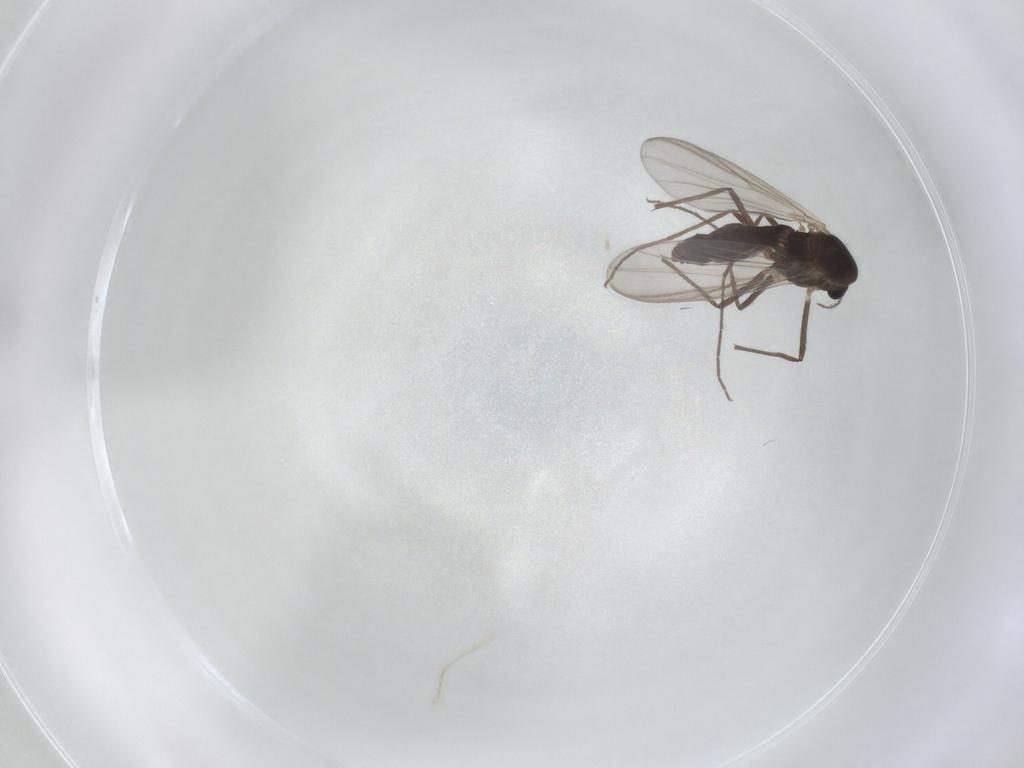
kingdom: Animalia
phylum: Arthropoda
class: Insecta
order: Diptera
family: Chironomidae
